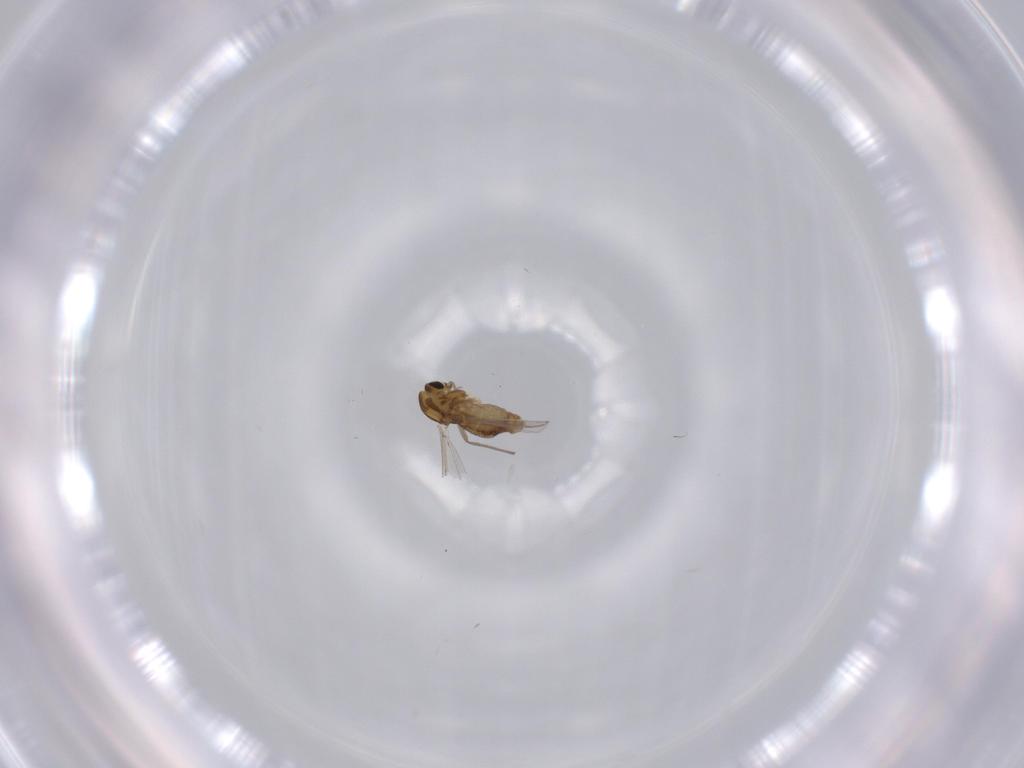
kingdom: Animalia
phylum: Arthropoda
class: Insecta
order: Diptera
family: Chironomidae
